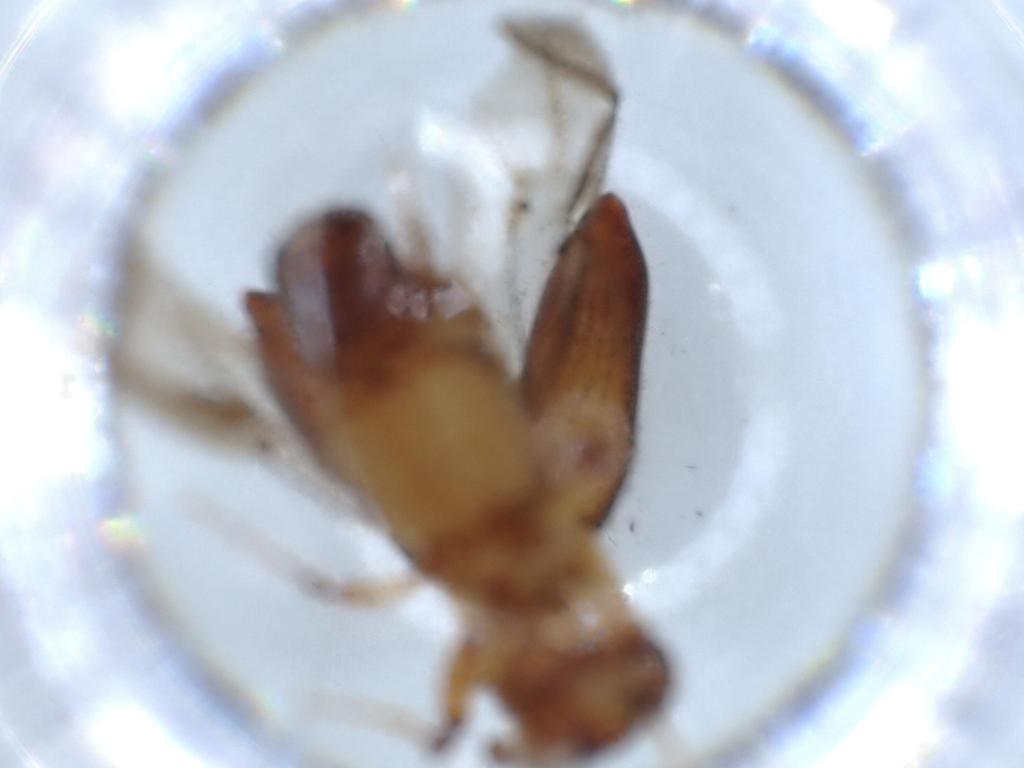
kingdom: Animalia
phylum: Arthropoda
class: Insecta
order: Coleoptera
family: Curculionidae
